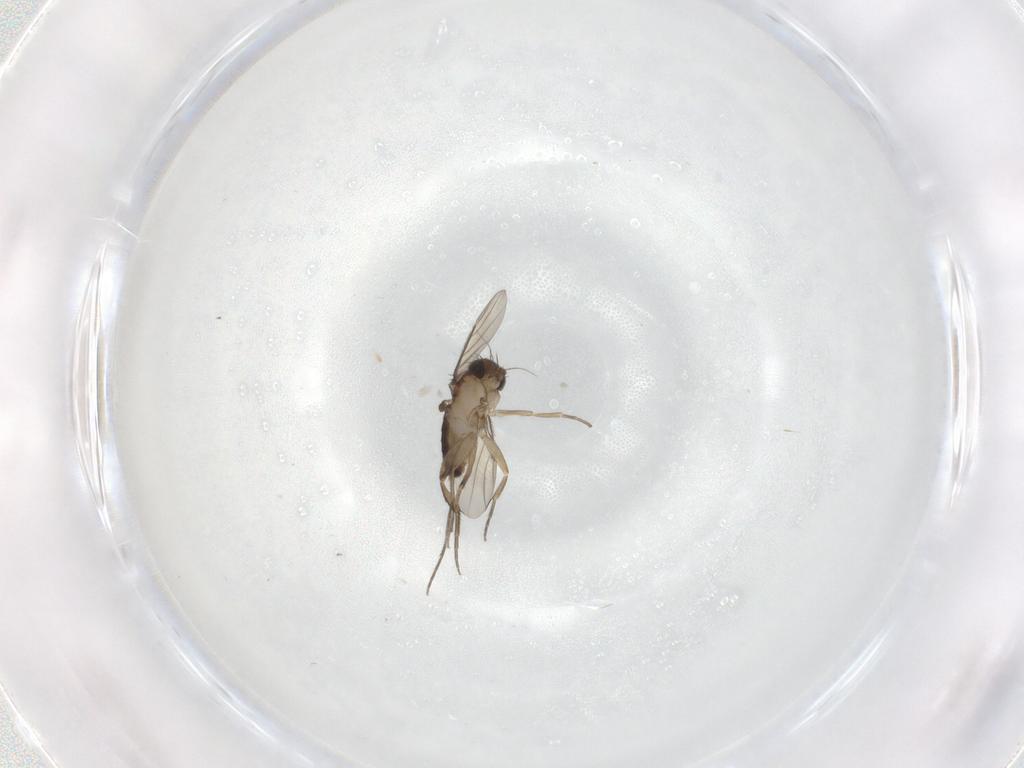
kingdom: Animalia
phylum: Arthropoda
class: Insecta
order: Diptera
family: Phoridae
